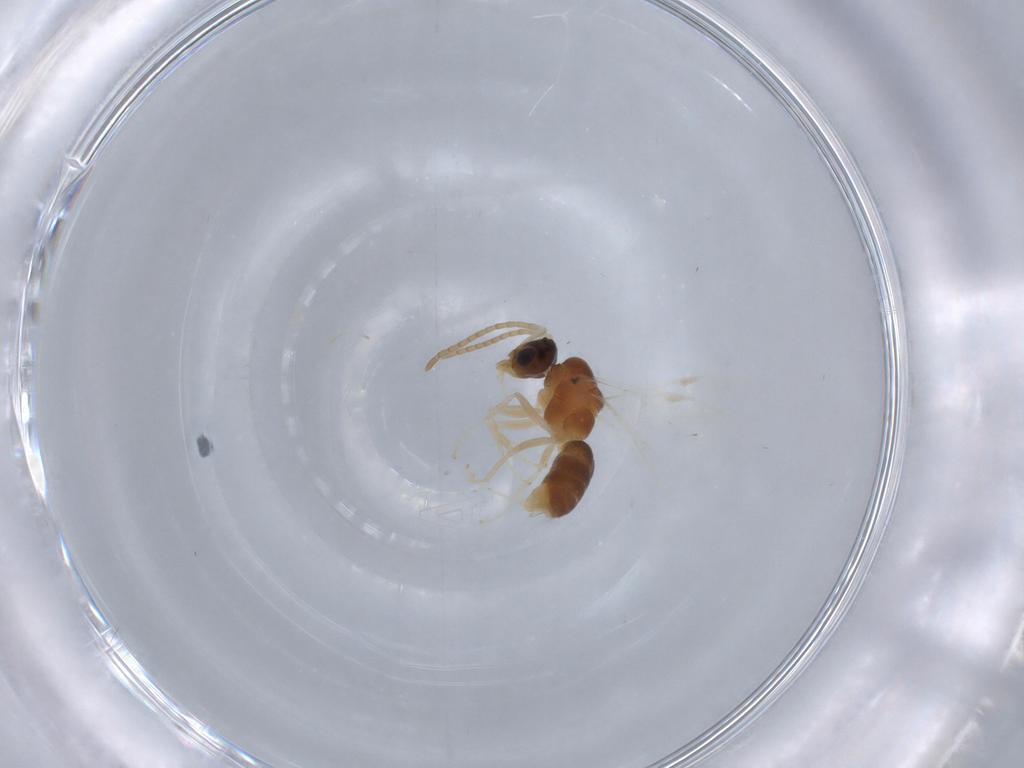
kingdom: Animalia
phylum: Arthropoda
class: Insecta
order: Hymenoptera
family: Formicidae
